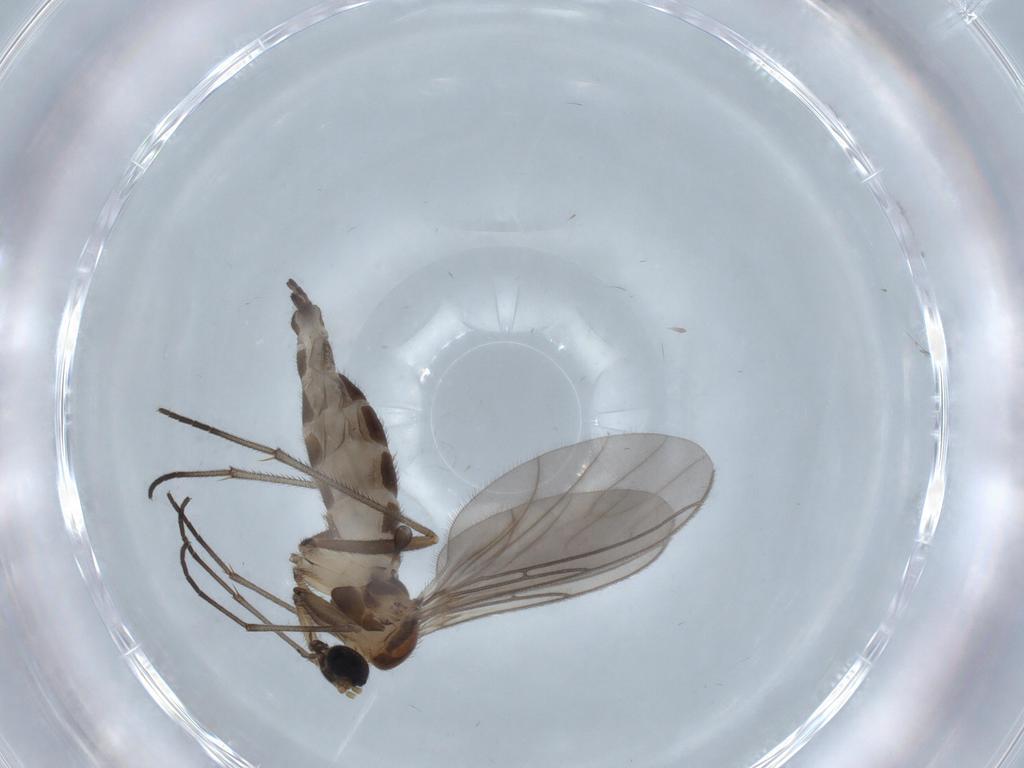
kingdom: Animalia
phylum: Arthropoda
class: Insecta
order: Diptera
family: Sciaridae
